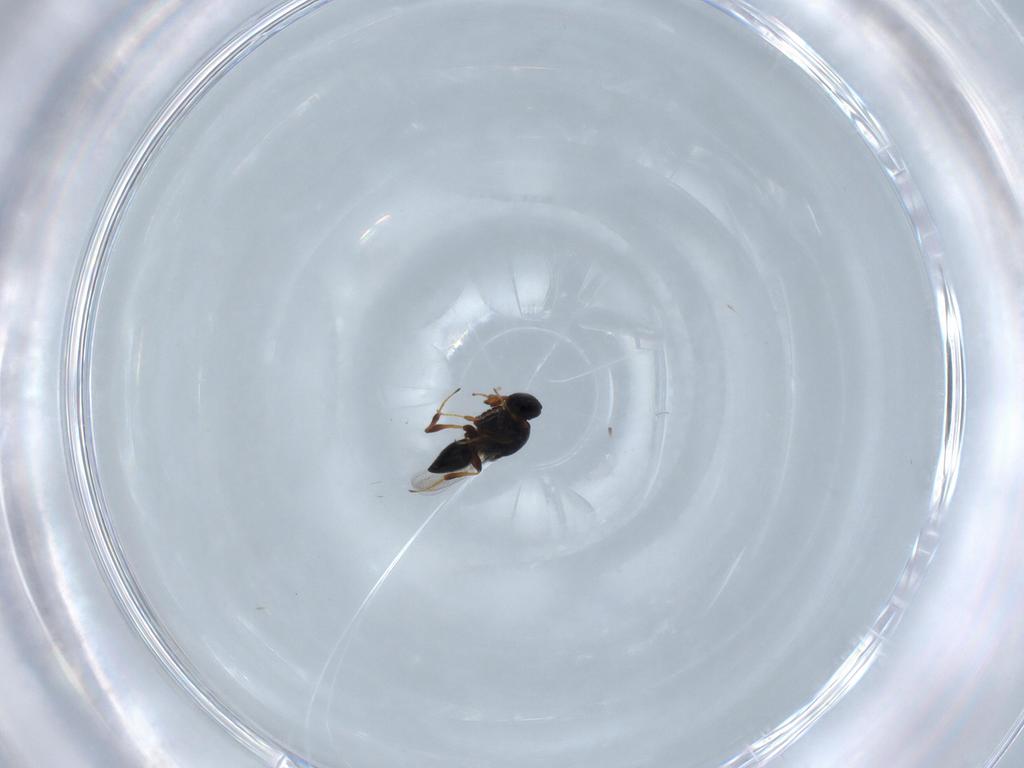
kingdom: Animalia
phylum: Arthropoda
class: Insecta
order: Hymenoptera
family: Platygastridae
